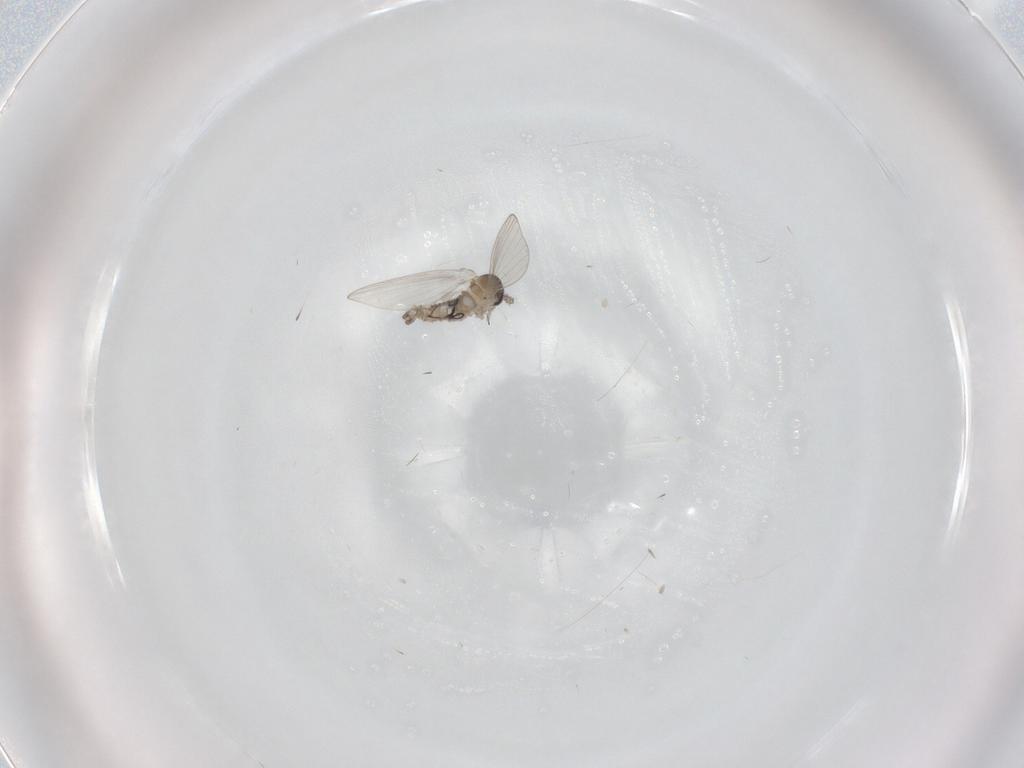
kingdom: Animalia
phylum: Arthropoda
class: Insecta
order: Diptera
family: Psychodidae
